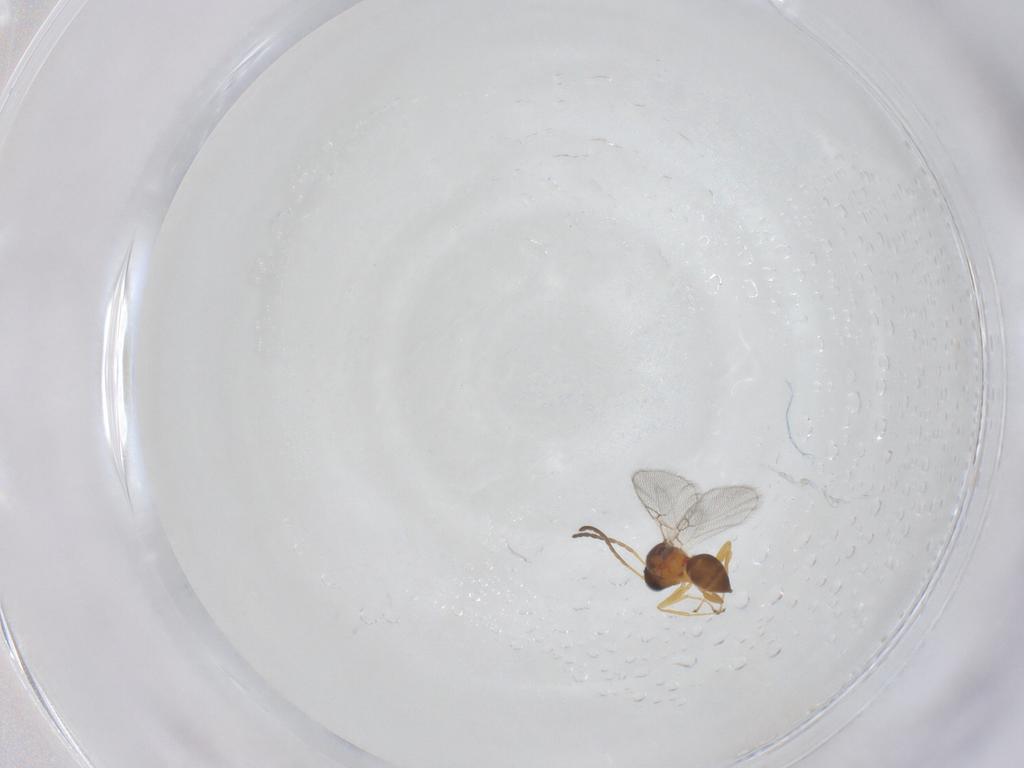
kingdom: Animalia
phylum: Arthropoda
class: Insecta
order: Hymenoptera
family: Figitidae
